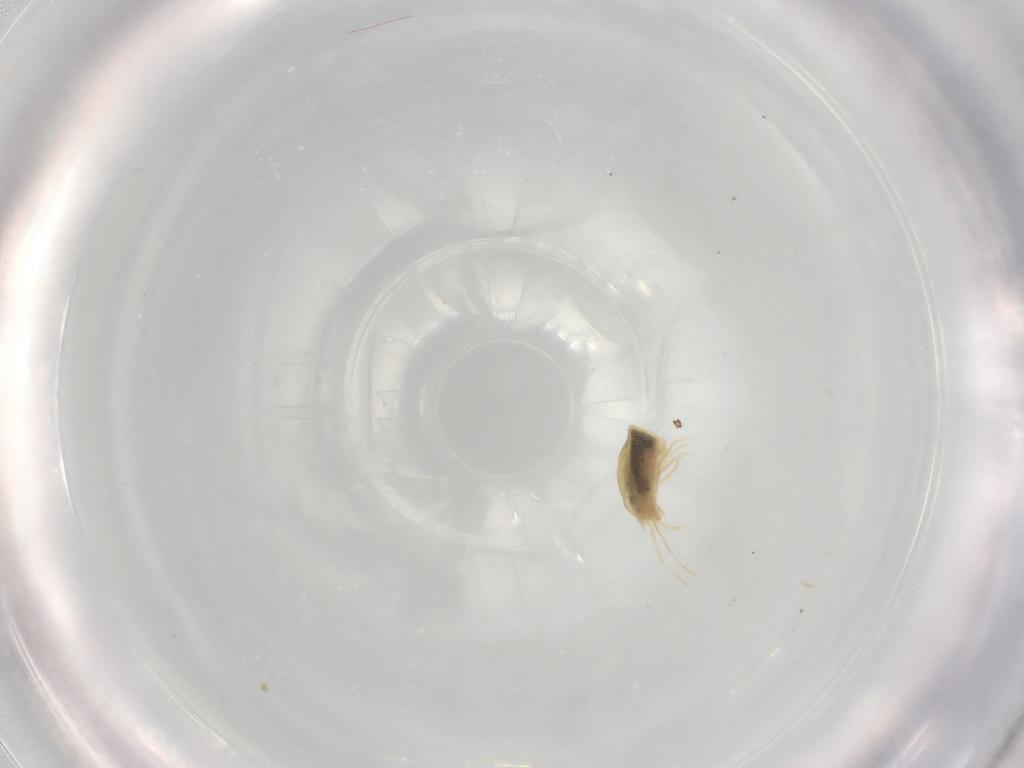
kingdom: Animalia
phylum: Arthropoda
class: Arachnida
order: Trombidiformes
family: Tetranychidae
